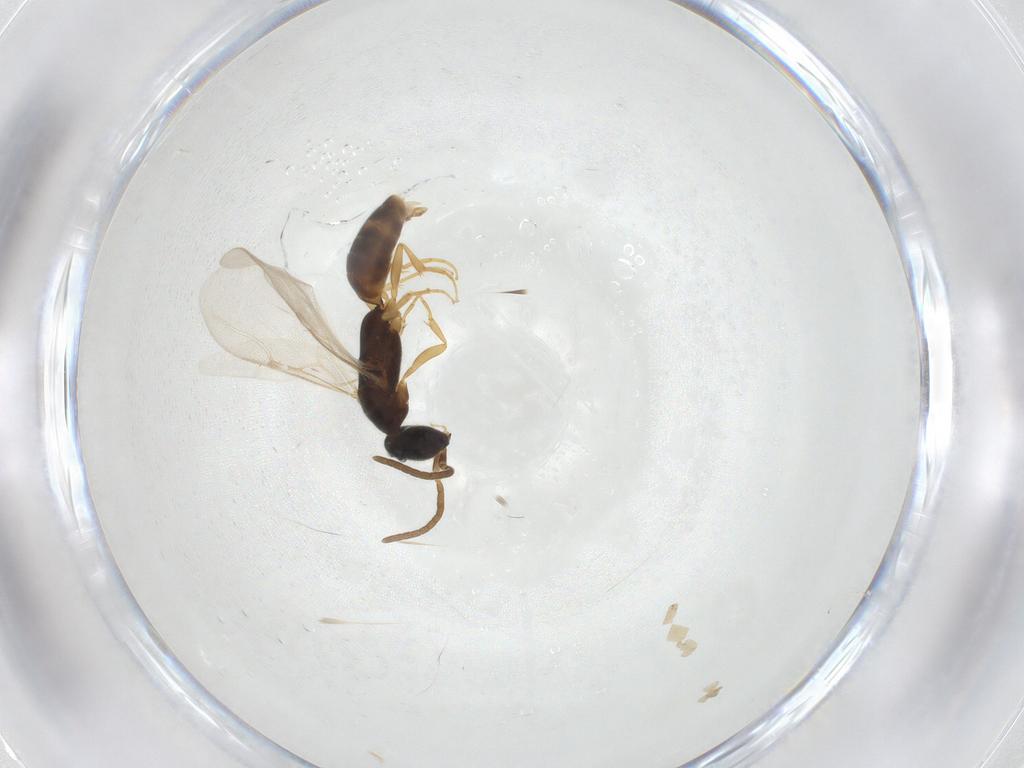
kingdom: Animalia
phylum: Arthropoda
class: Insecta
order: Hymenoptera
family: Bethylidae
